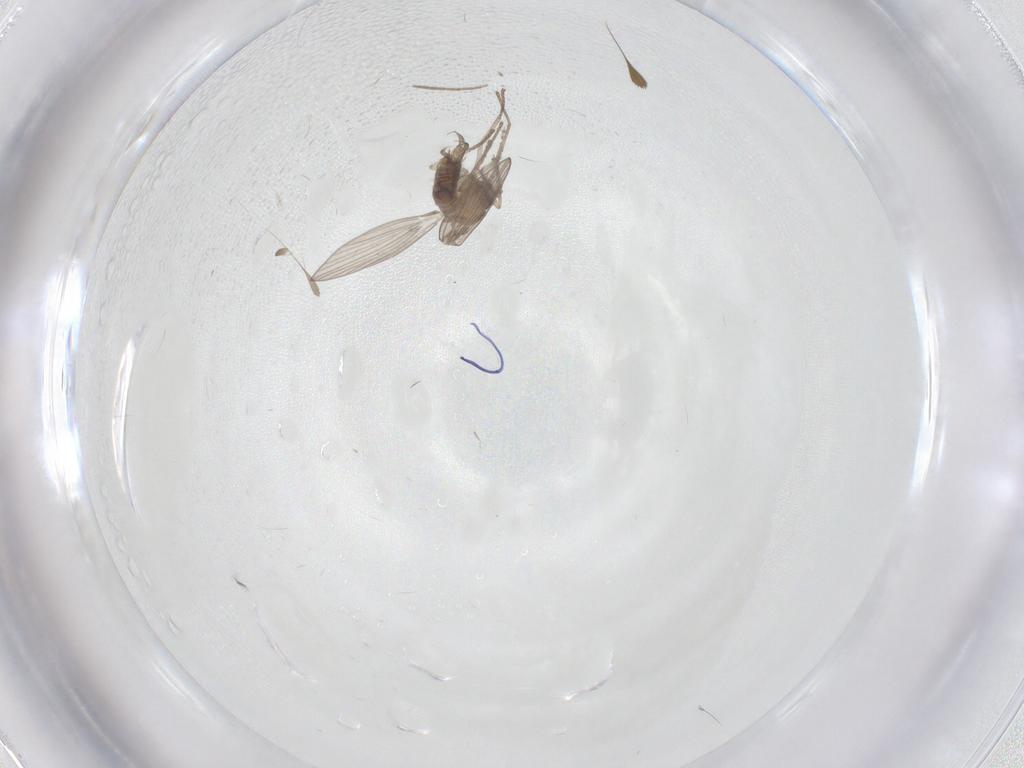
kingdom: Animalia
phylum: Arthropoda
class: Insecta
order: Diptera
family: Psychodidae
